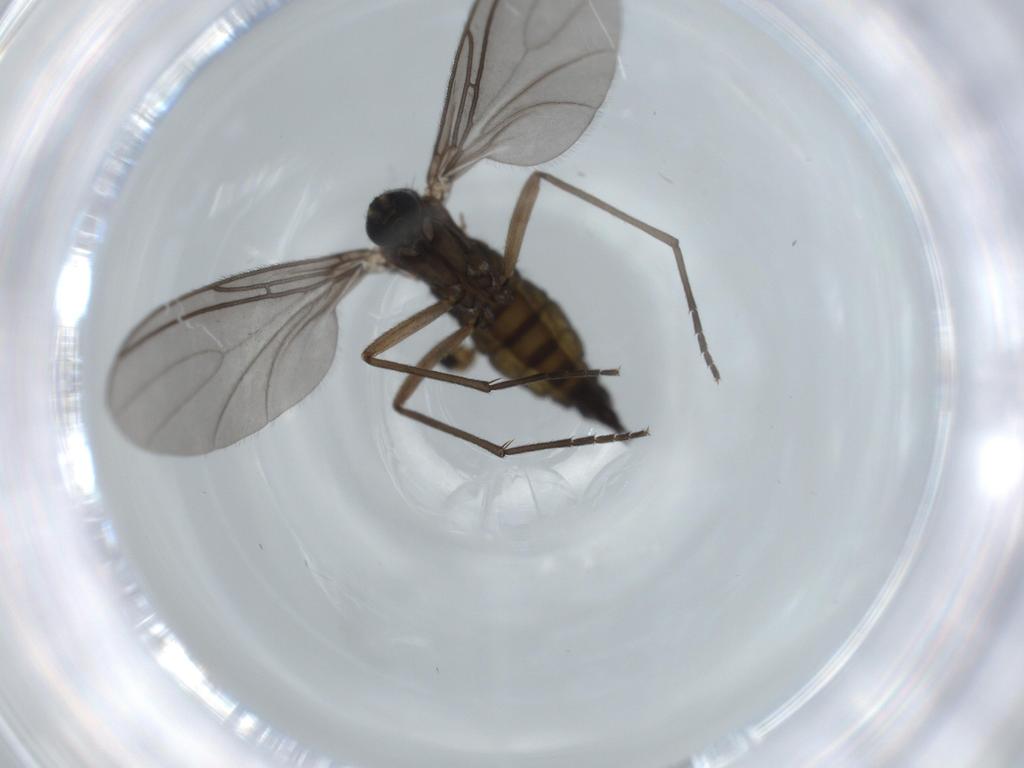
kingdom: Animalia
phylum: Arthropoda
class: Insecta
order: Diptera
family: Sciaridae
